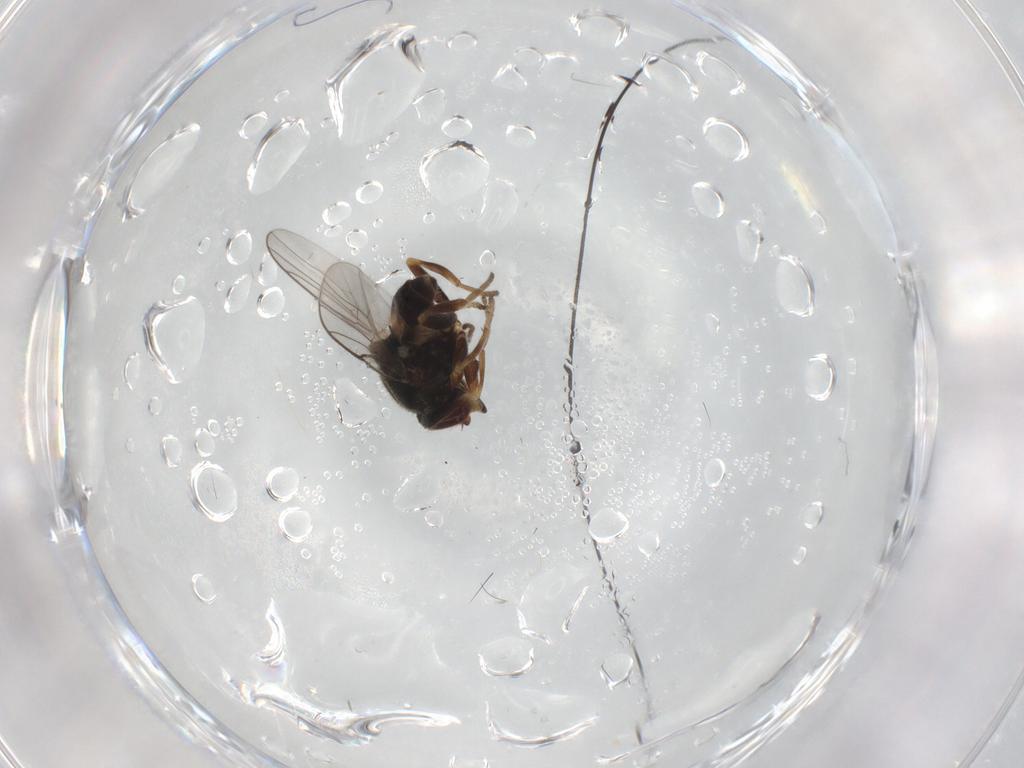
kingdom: Animalia
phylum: Arthropoda
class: Insecta
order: Diptera
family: Chloropidae
